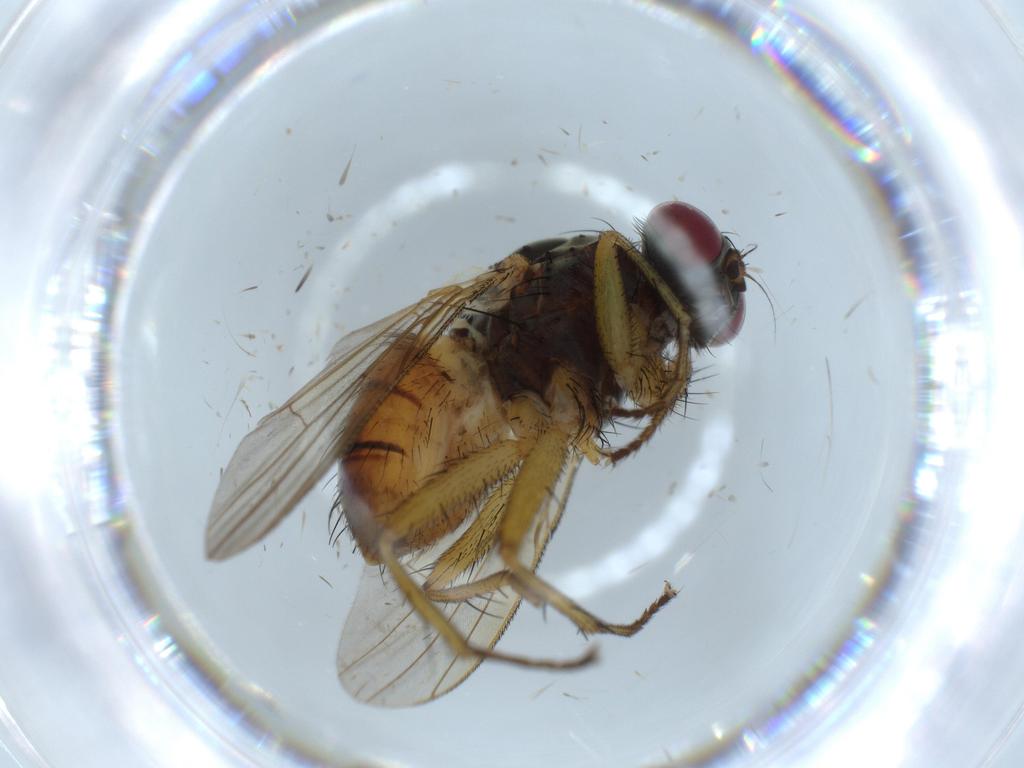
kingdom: Animalia
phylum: Arthropoda
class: Insecta
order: Diptera
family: Muscidae
